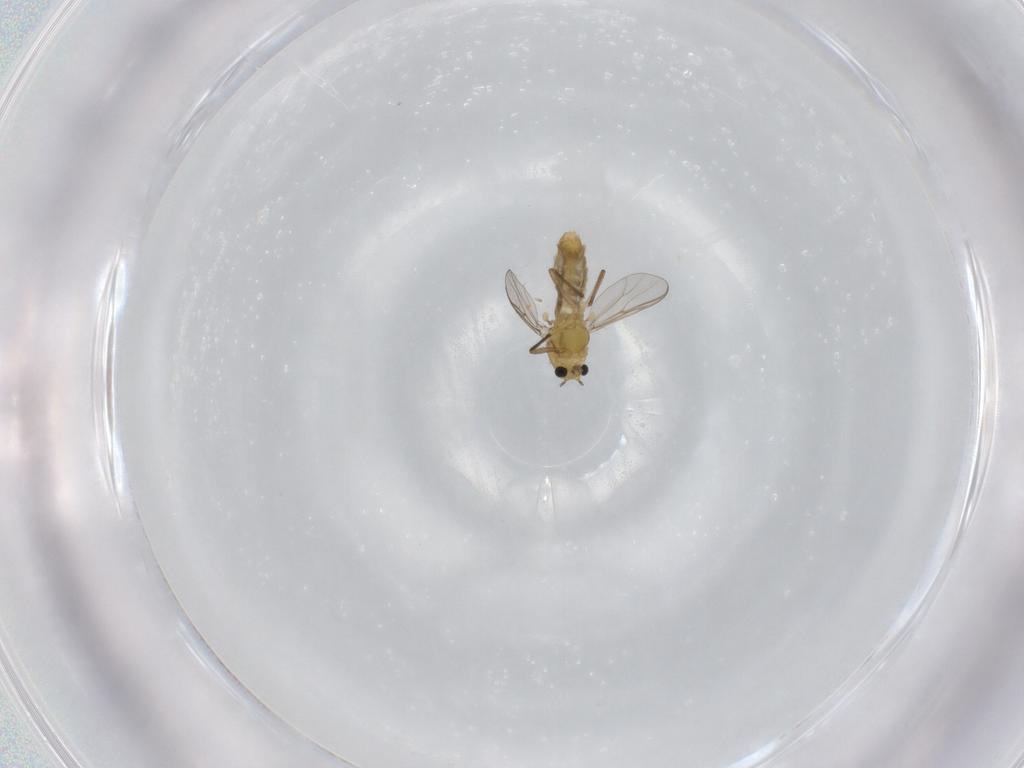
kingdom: Animalia
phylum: Arthropoda
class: Insecta
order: Diptera
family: Chironomidae
